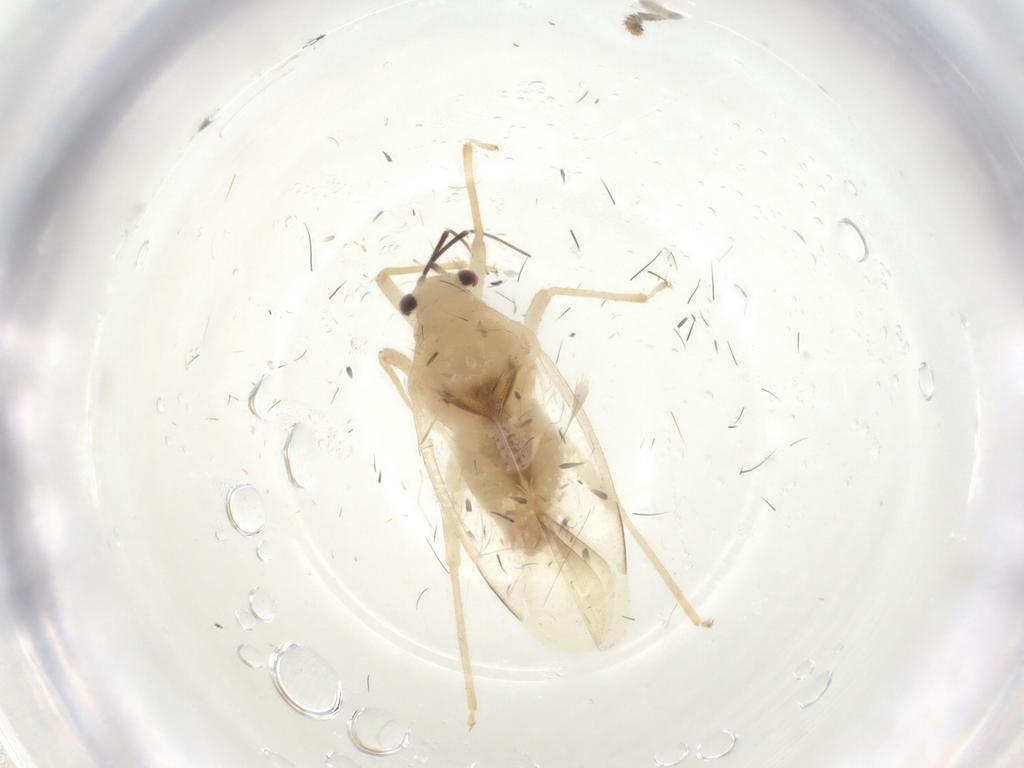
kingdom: Animalia
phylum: Arthropoda
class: Insecta
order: Hemiptera
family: Miridae
